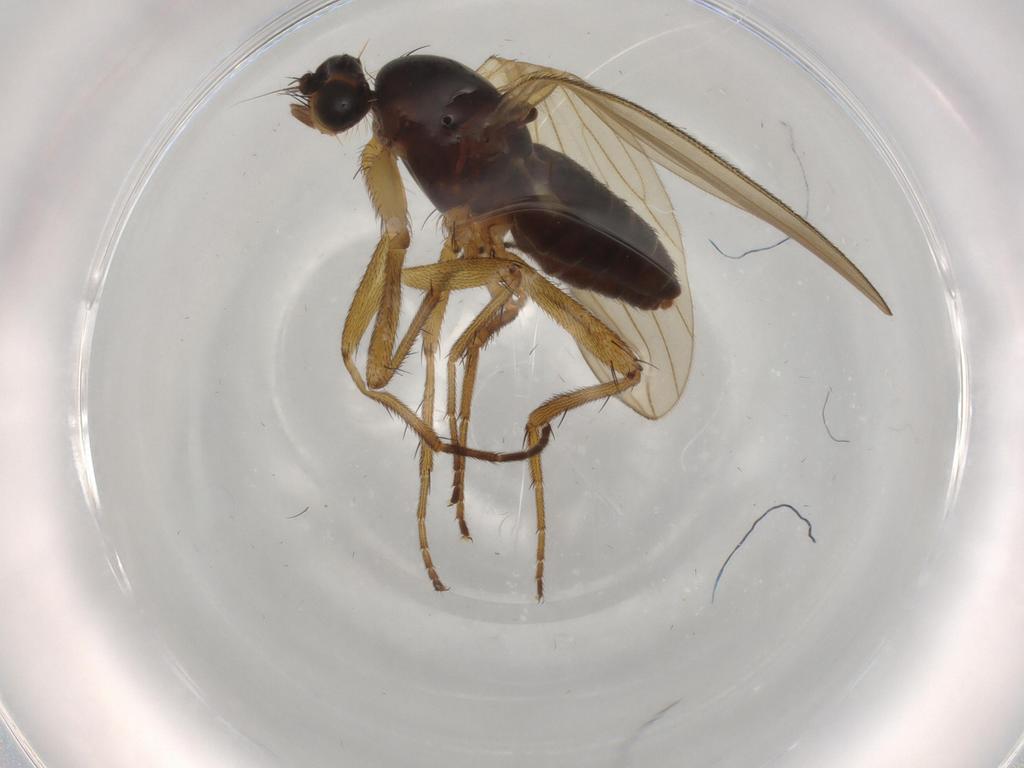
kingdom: Animalia
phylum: Arthropoda
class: Insecta
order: Diptera
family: Lonchopteridae
